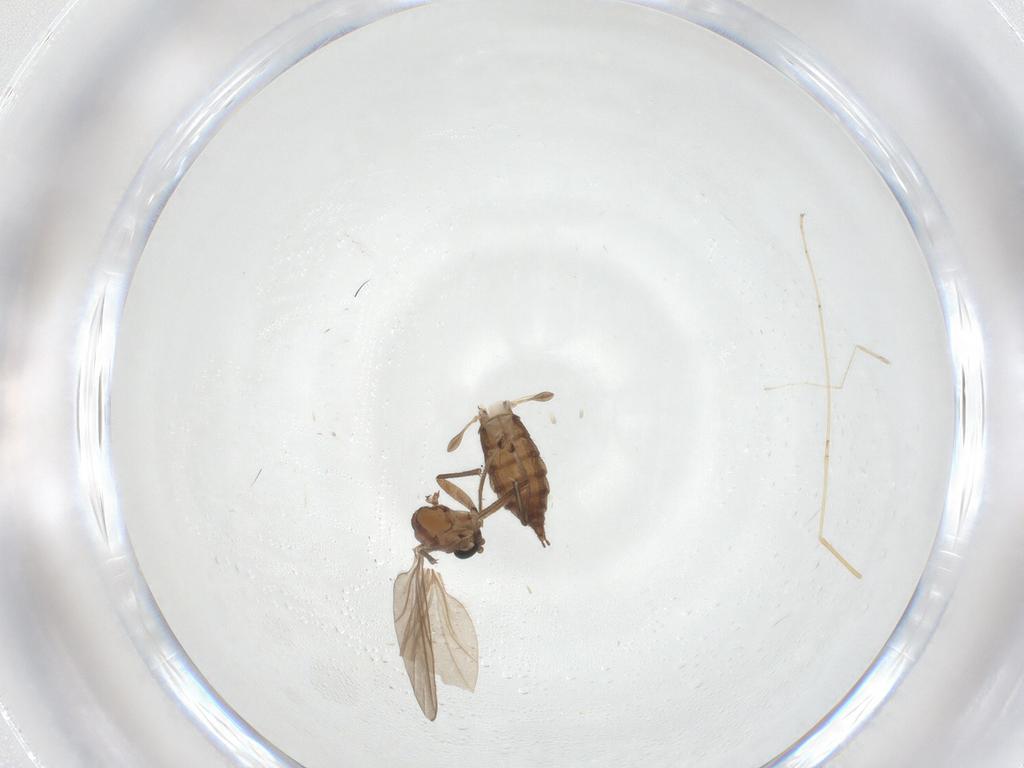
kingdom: Animalia
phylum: Arthropoda
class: Insecta
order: Diptera
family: Sciaridae
